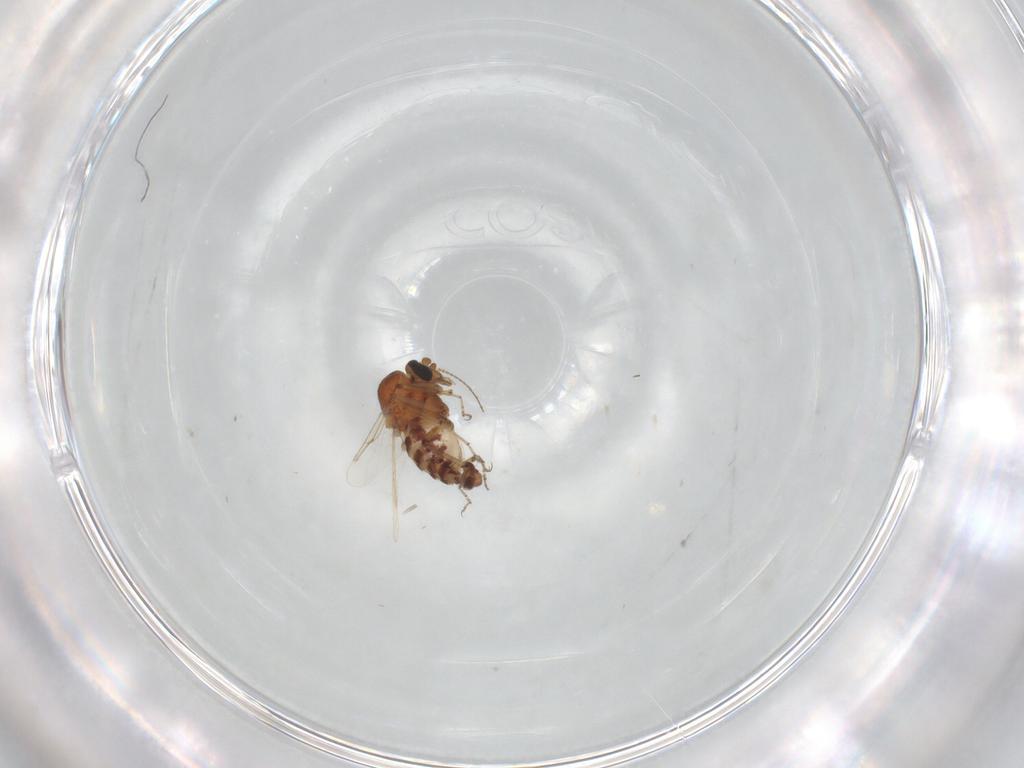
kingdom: Animalia
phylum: Arthropoda
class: Insecta
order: Diptera
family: Ceratopogonidae
